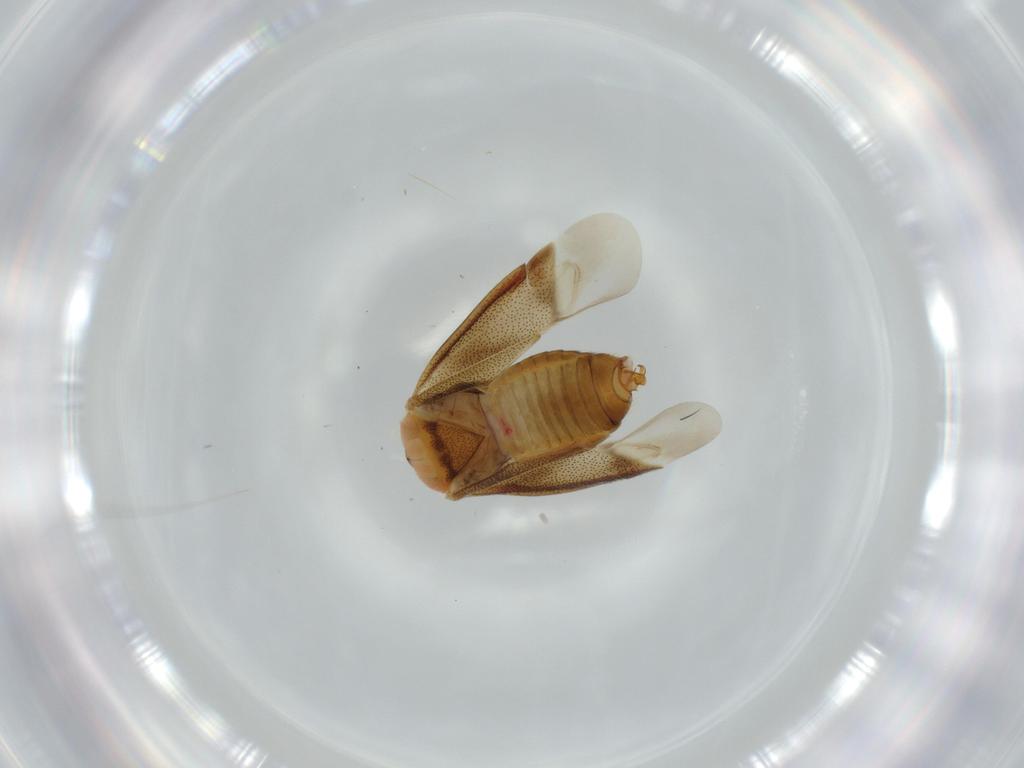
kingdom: Animalia
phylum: Arthropoda
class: Insecta
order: Hemiptera
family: Miridae
